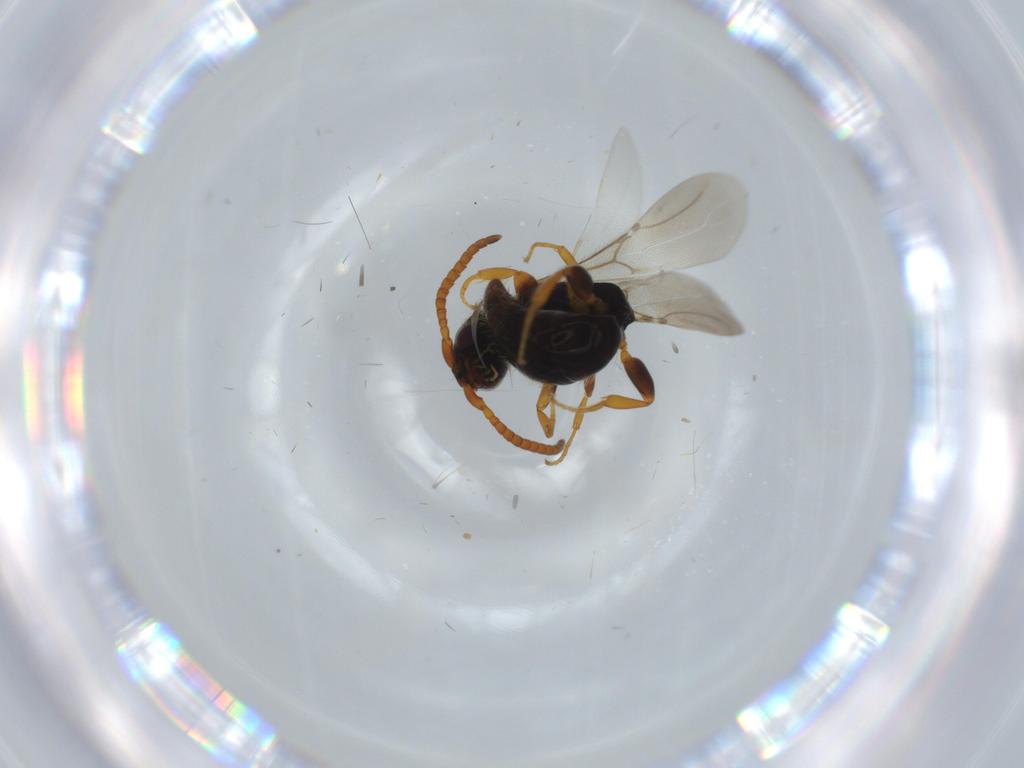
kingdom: Animalia
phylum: Arthropoda
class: Insecta
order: Hymenoptera
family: Bethylidae
